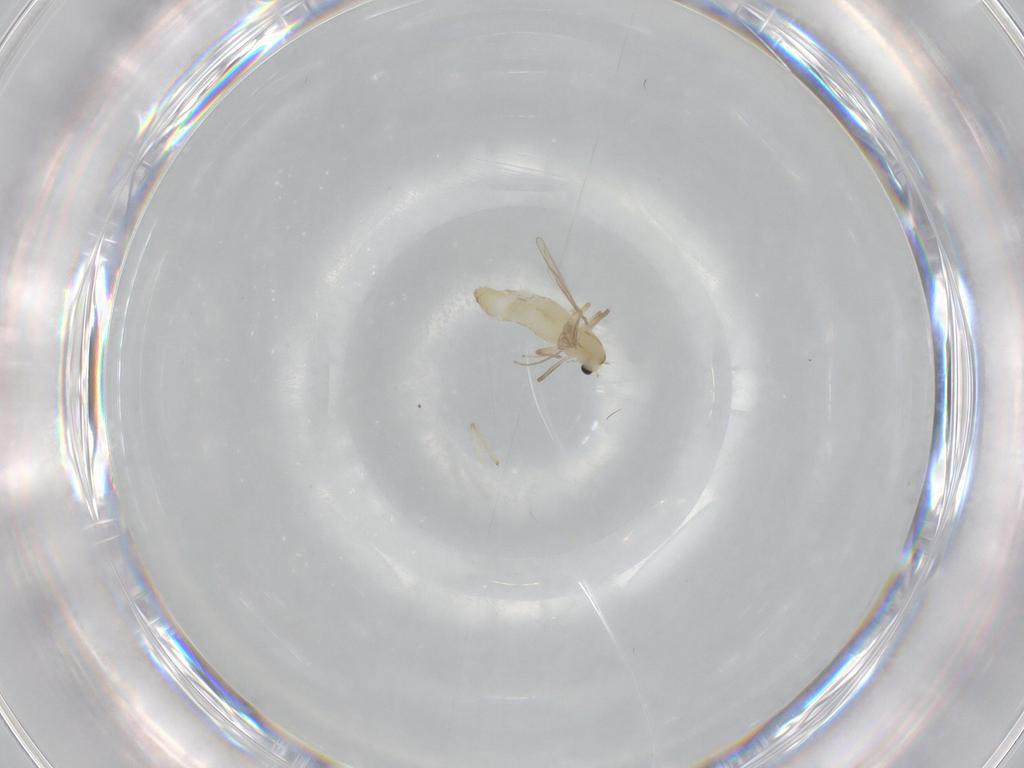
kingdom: Animalia
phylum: Arthropoda
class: Insecta
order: Diptera
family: Chironomidae
